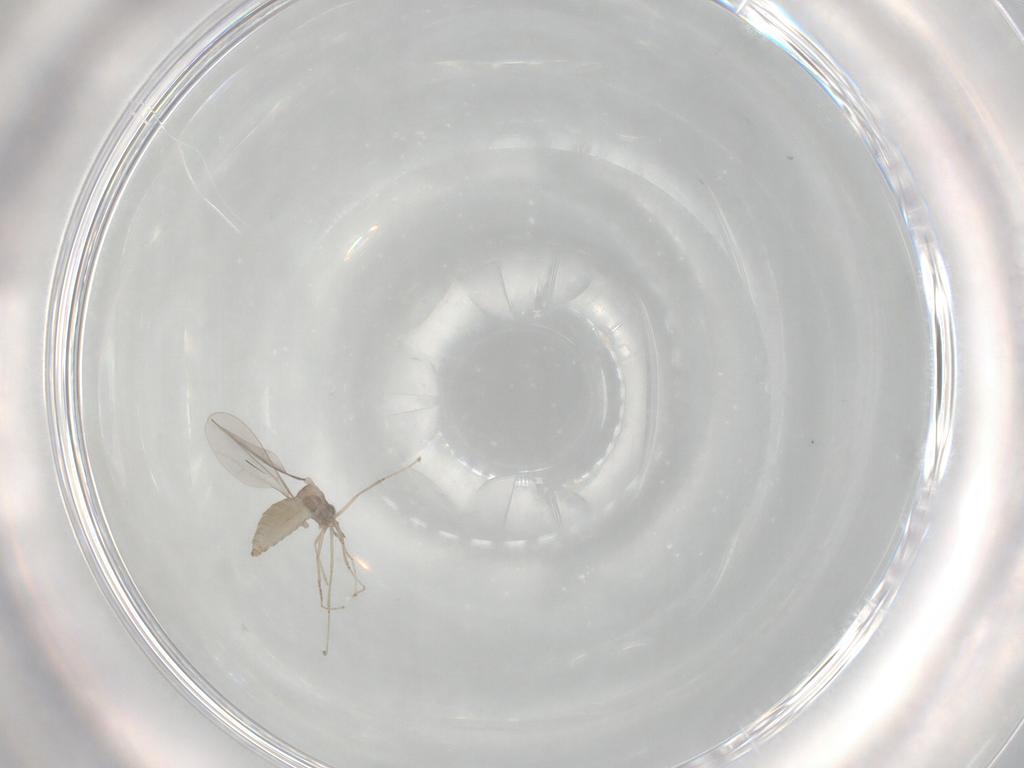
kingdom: Animalia
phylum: Arthropoda
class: Insecta
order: Diptera
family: Cecidomyiidae
